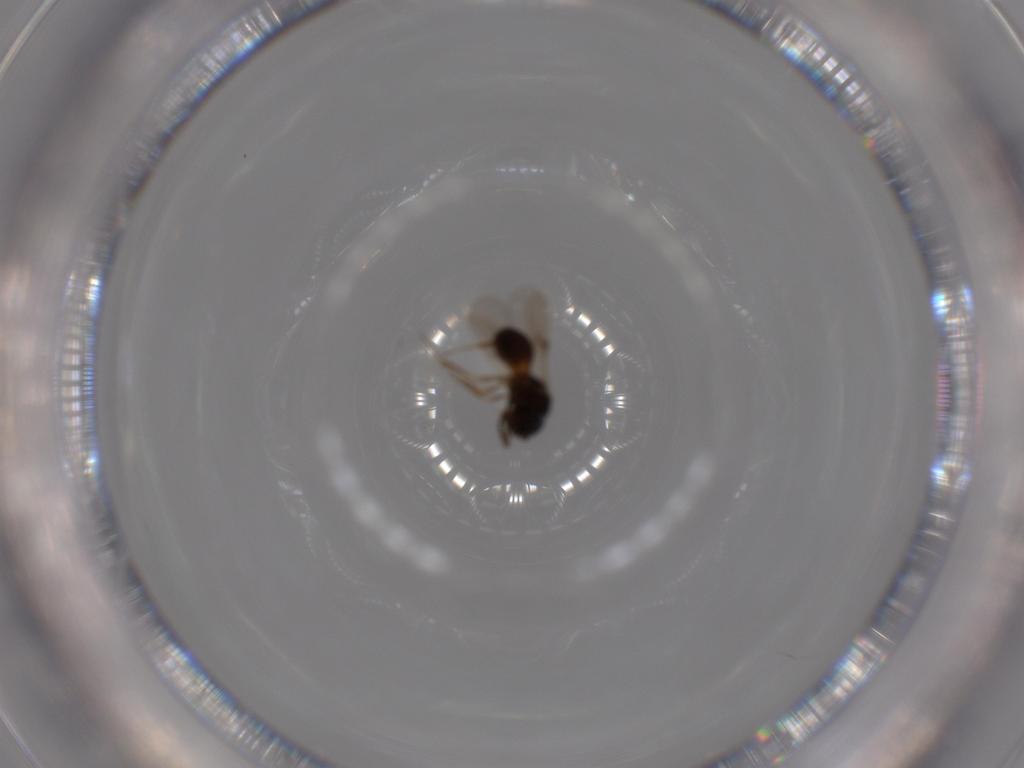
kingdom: Animalia
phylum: Arthropoda
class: Arachnida
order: Araneae
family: Pholcidae
